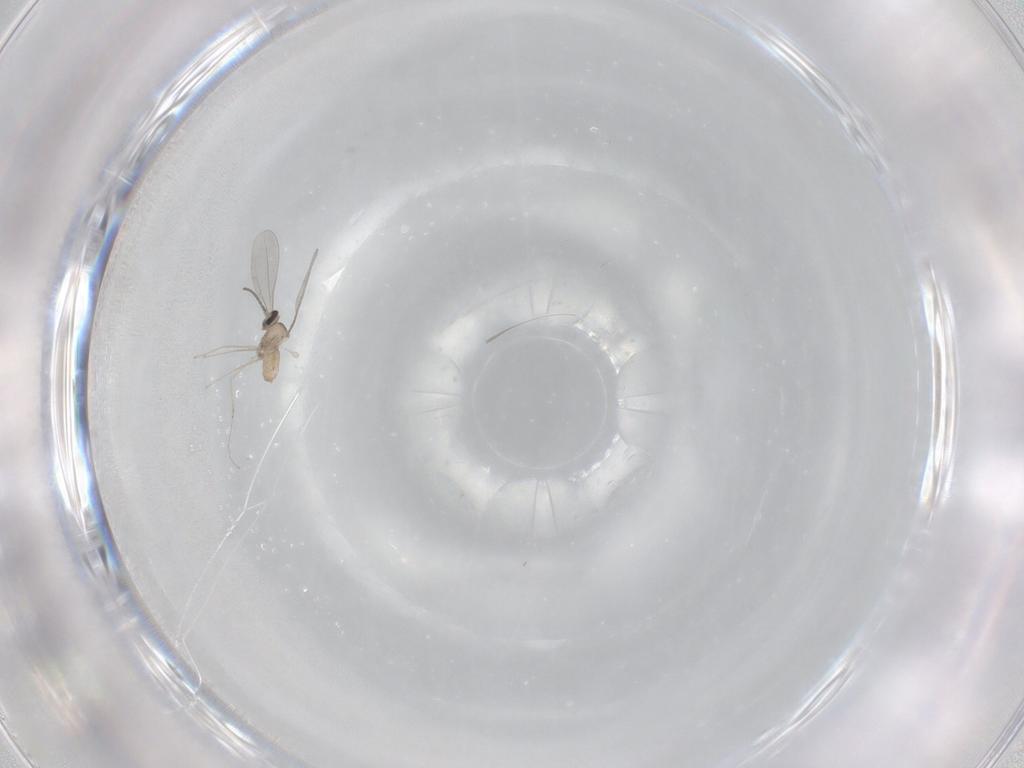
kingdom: Animalia
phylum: Arthropoda
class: Insecta
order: Diptera
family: Cecidomyiidae
